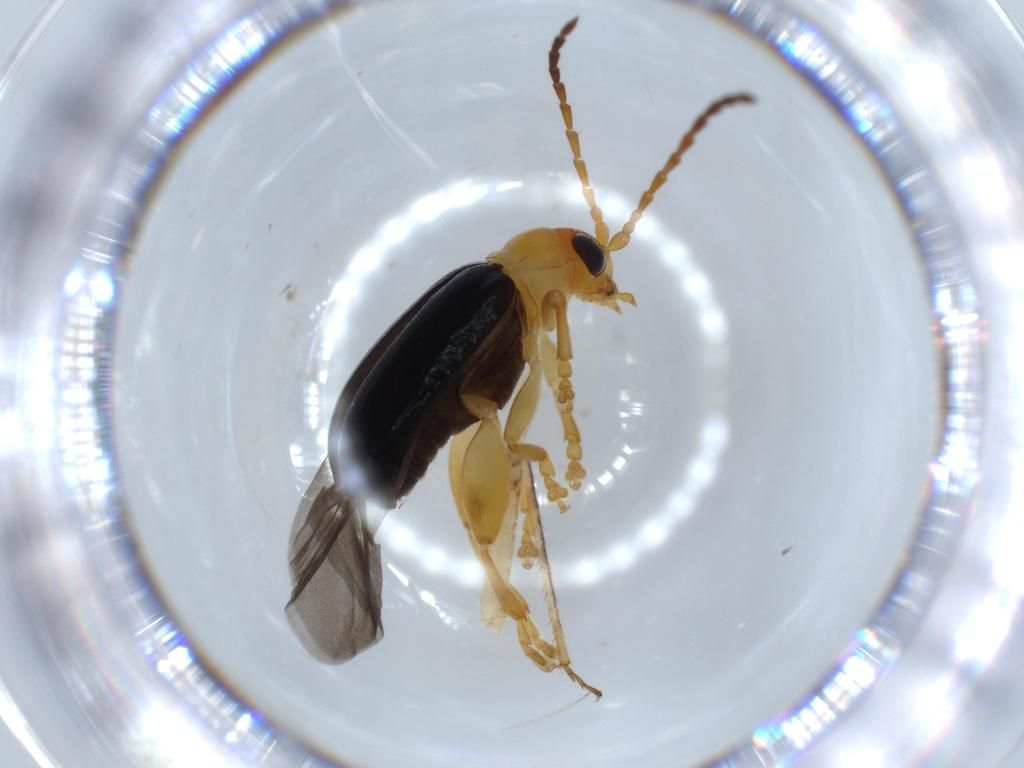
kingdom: Animalia
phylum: Arthropoda
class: Insecta
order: Coleoptera
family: Chrysomelidae
